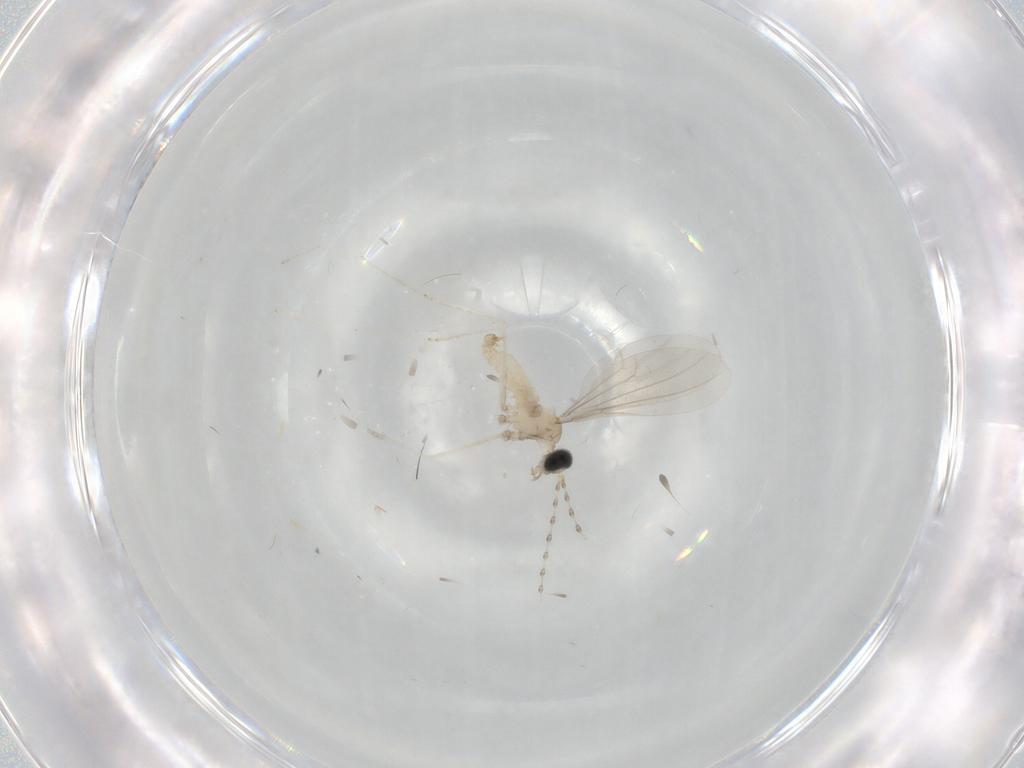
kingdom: Animalia
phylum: Arthropoda
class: Insecta
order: Diptera
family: Cecidomyiidae
